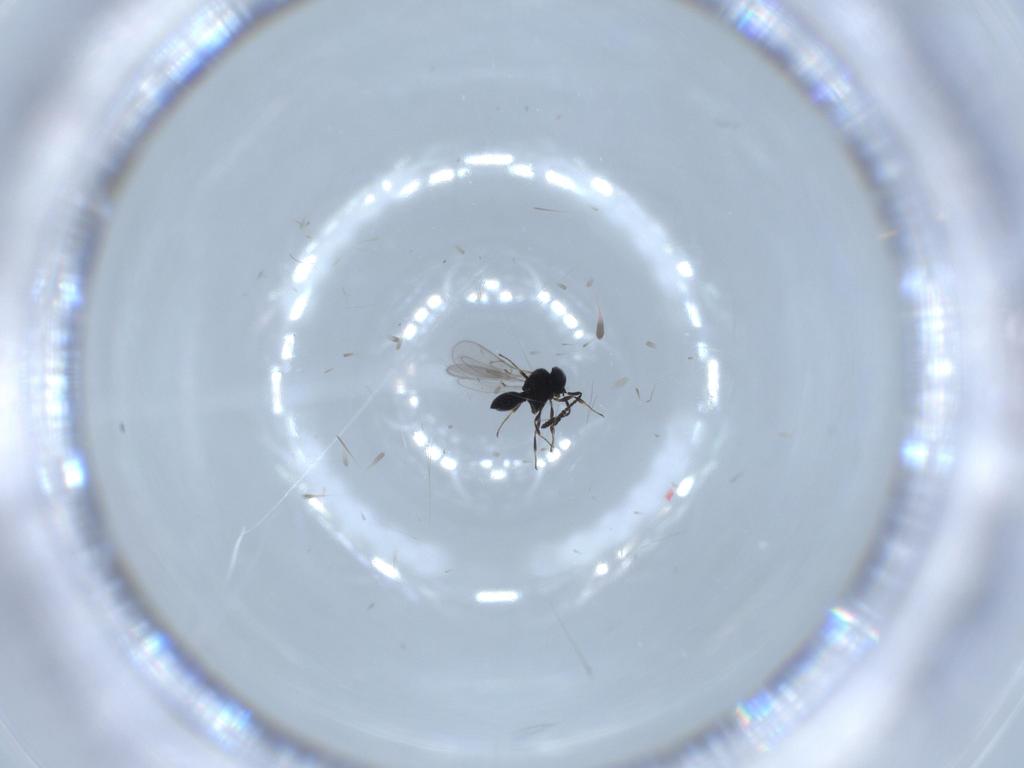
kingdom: Animalia
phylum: Arthropoda
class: Insecta
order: Hymenoptera
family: Scelionidae
